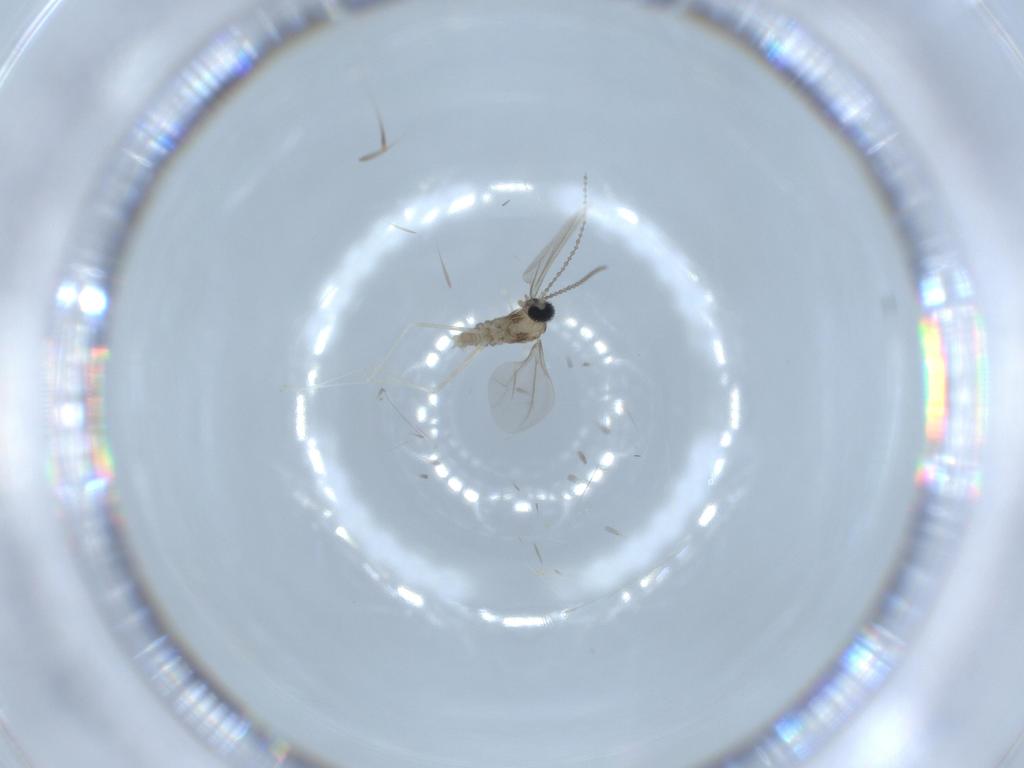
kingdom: Animalia
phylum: Arthropoda
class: Insecta
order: Diptera
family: Cecidomyiidae
